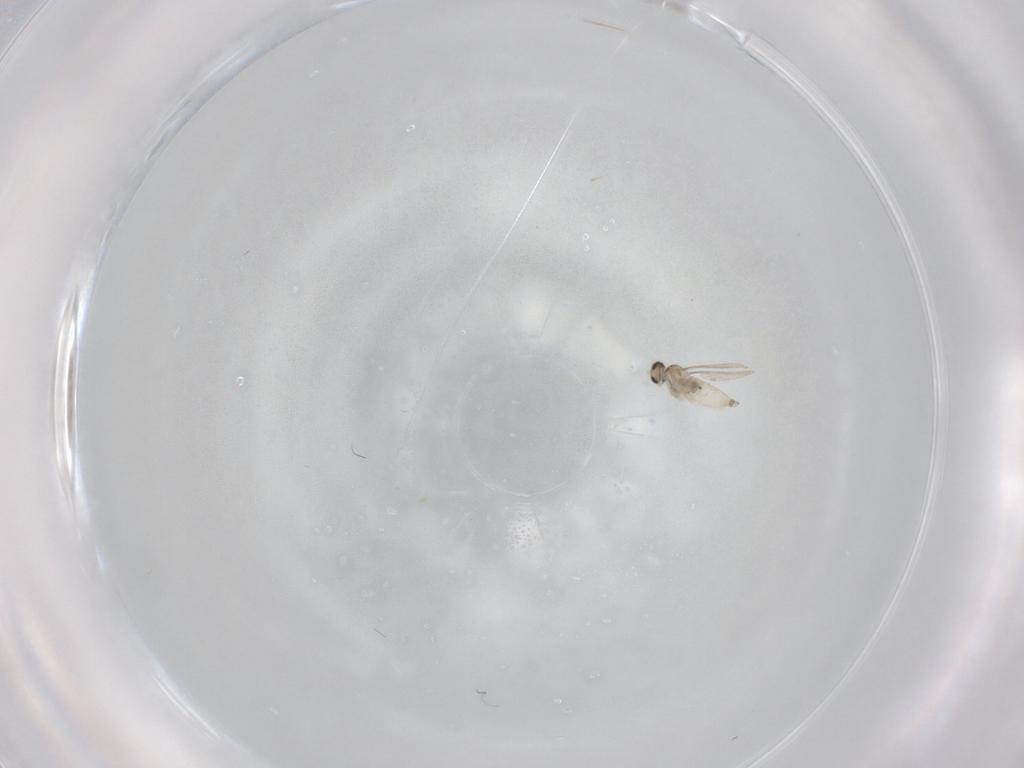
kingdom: Animalia
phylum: Arthropoda
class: Insecta
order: Diptera
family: Cecidomyiidae
